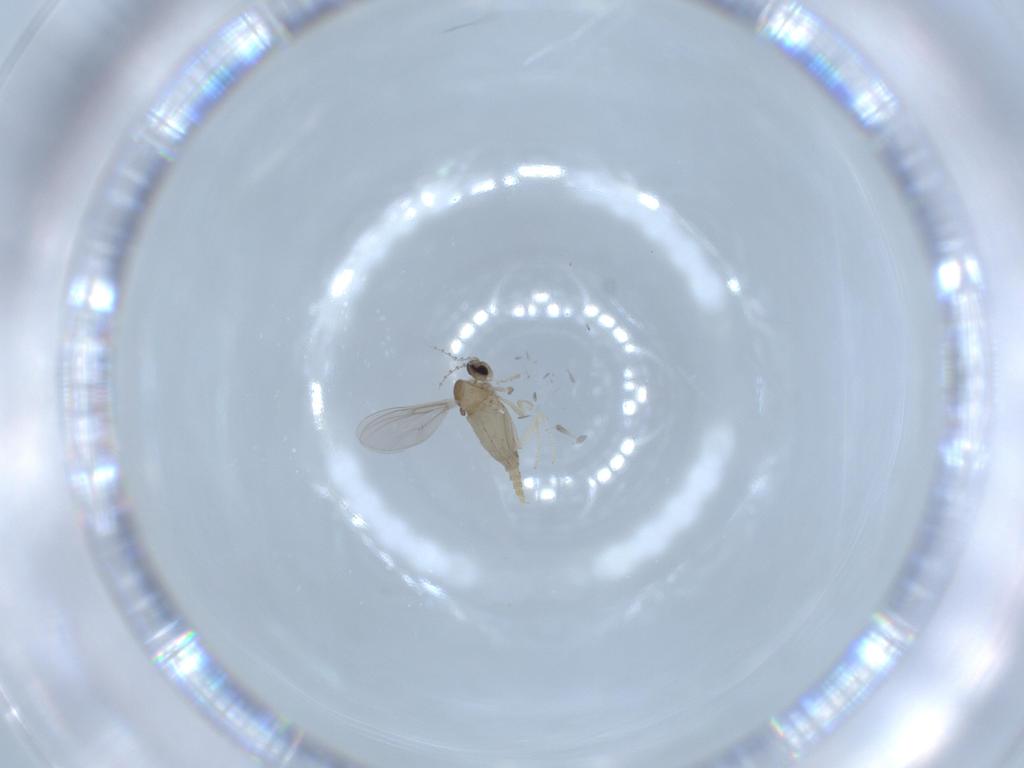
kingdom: Animalia
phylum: Arthropoda
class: Insecta
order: Diptera
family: Cecidomyiidae
